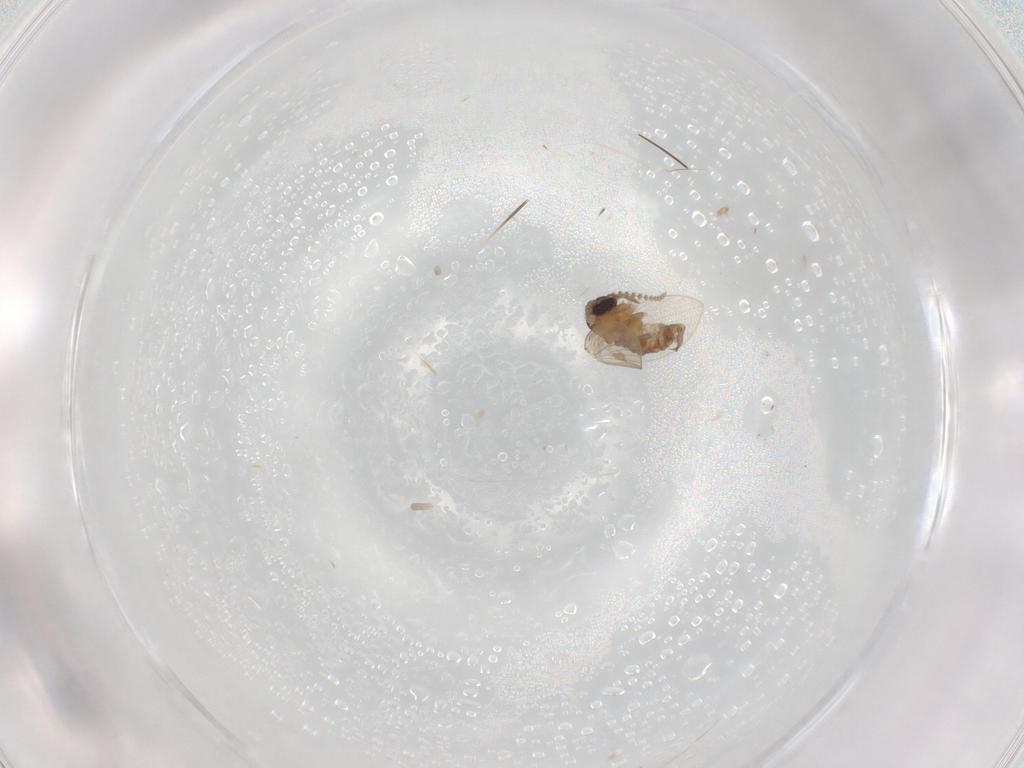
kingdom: Animalia
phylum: Arthropoda
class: Insecta
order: Diptera
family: Psychodidae
